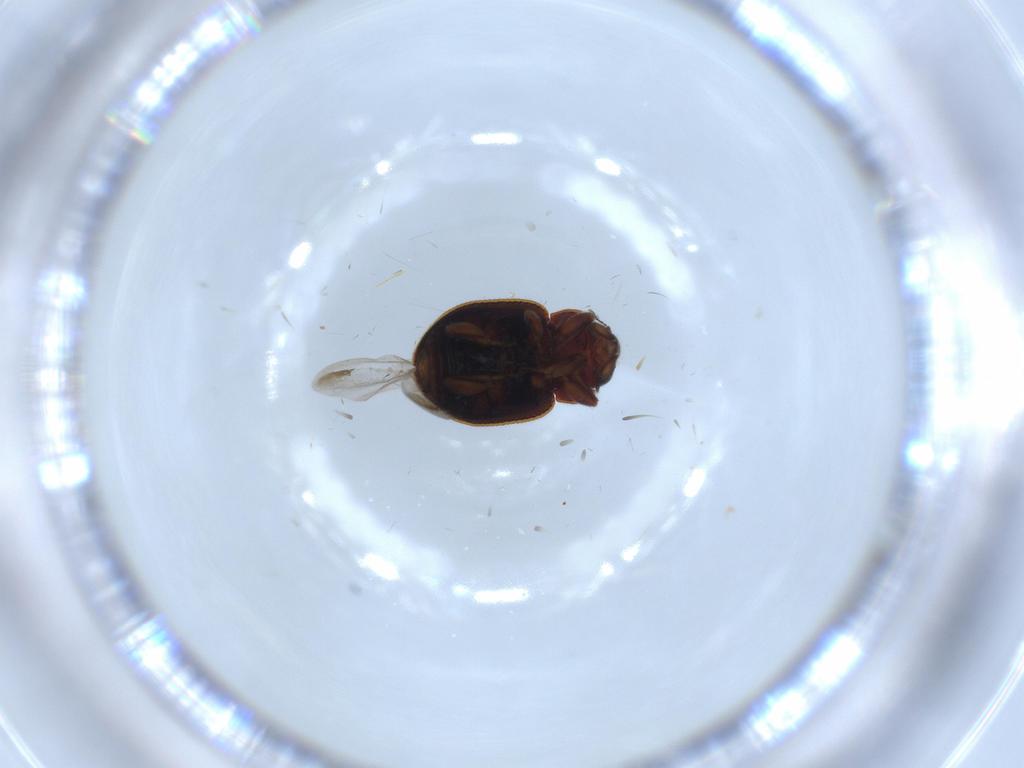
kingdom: Animalia
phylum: Arthropoda
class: Insecta
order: Coleoptera
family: Coccinellidae
